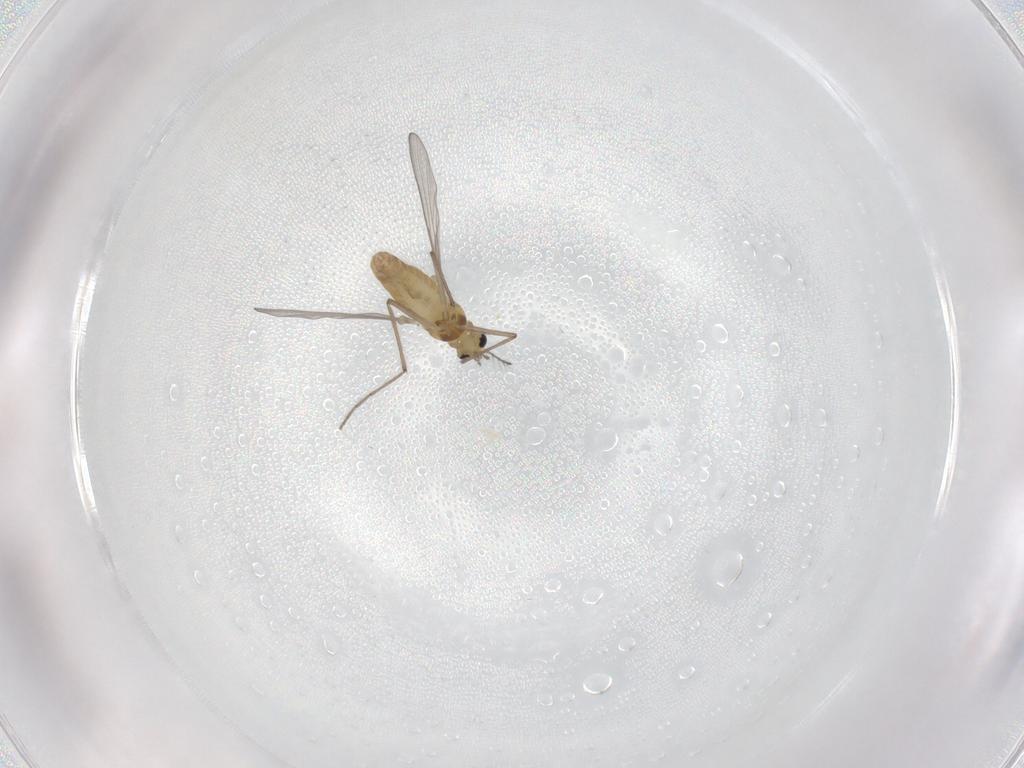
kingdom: Animalia
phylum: Arthropoda
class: Insecta
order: Diptera
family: Chironomidae
